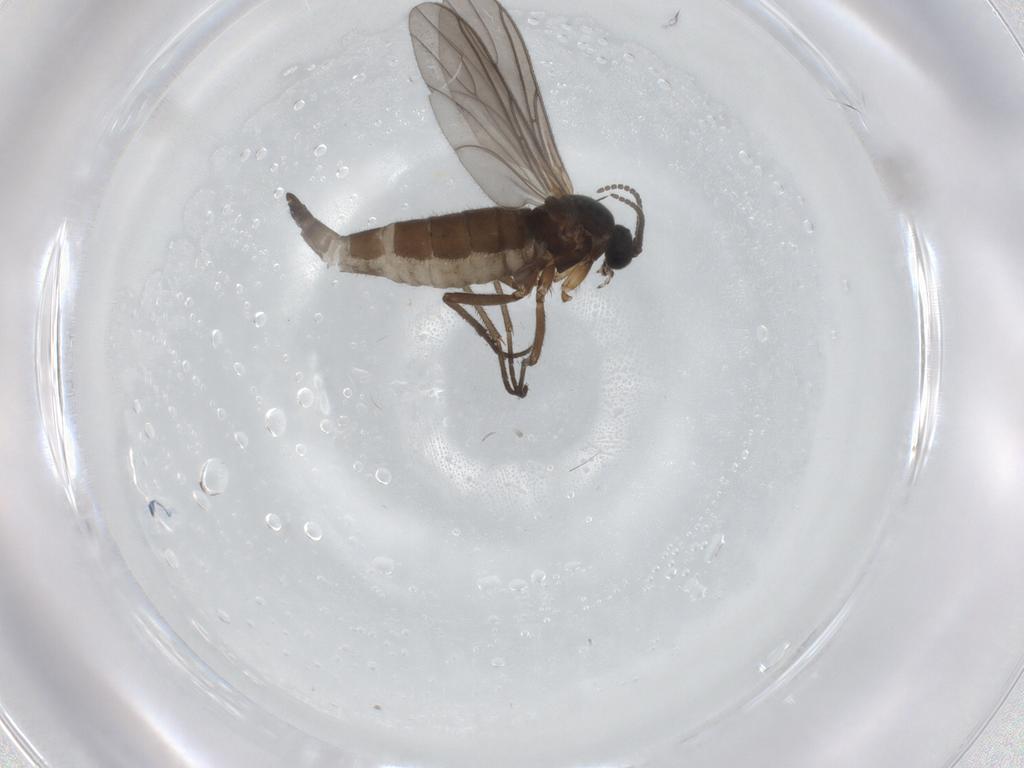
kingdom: Animalia
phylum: Arthropoda
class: Insecta
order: Diptera
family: Sciaridae
